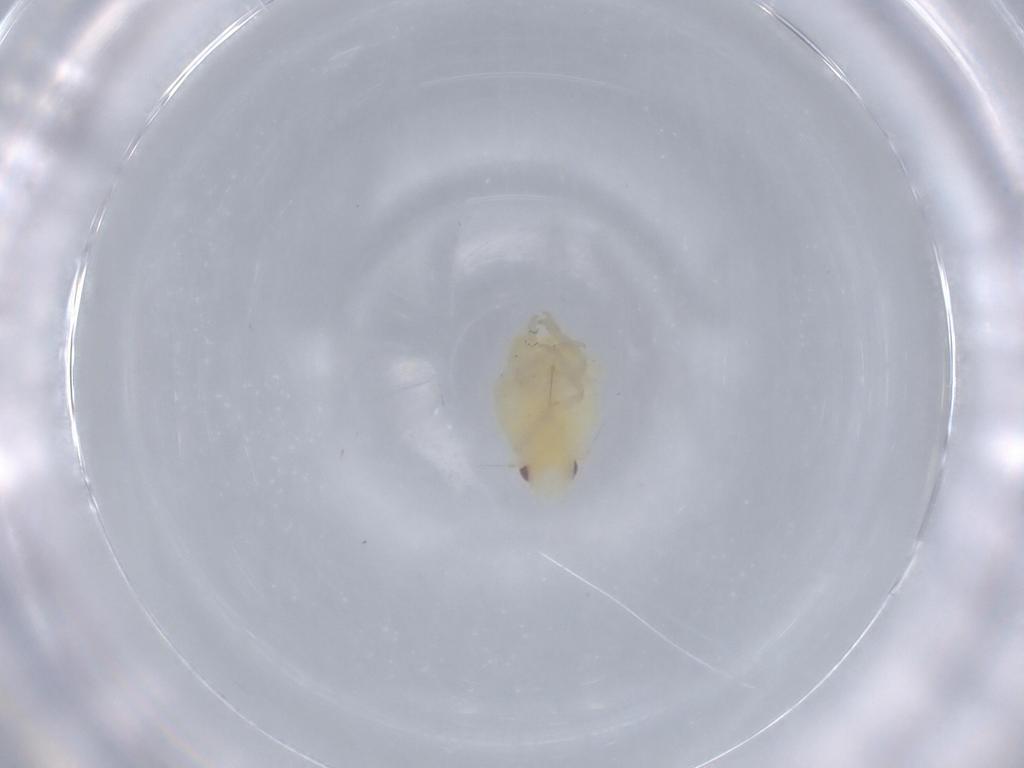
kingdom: Animalia
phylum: Arthropoda
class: Insecta
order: Hemiptera
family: Flatidae
